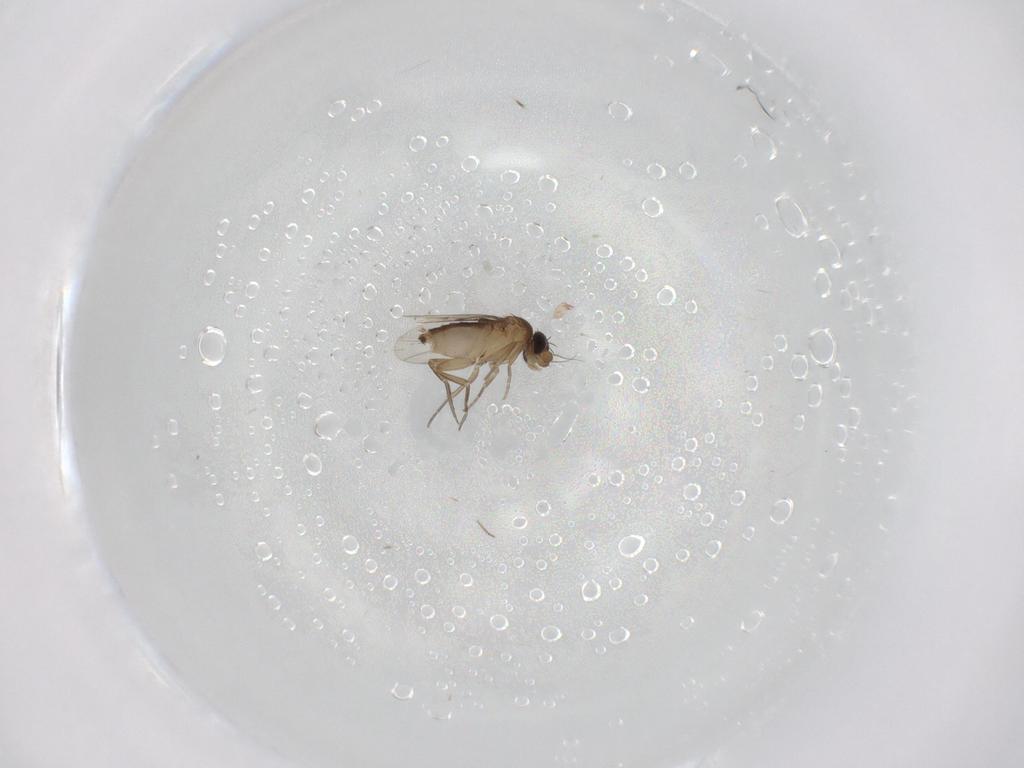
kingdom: Animalia
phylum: Arthropoda
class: Insecta
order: Diptera
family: Phoridae
